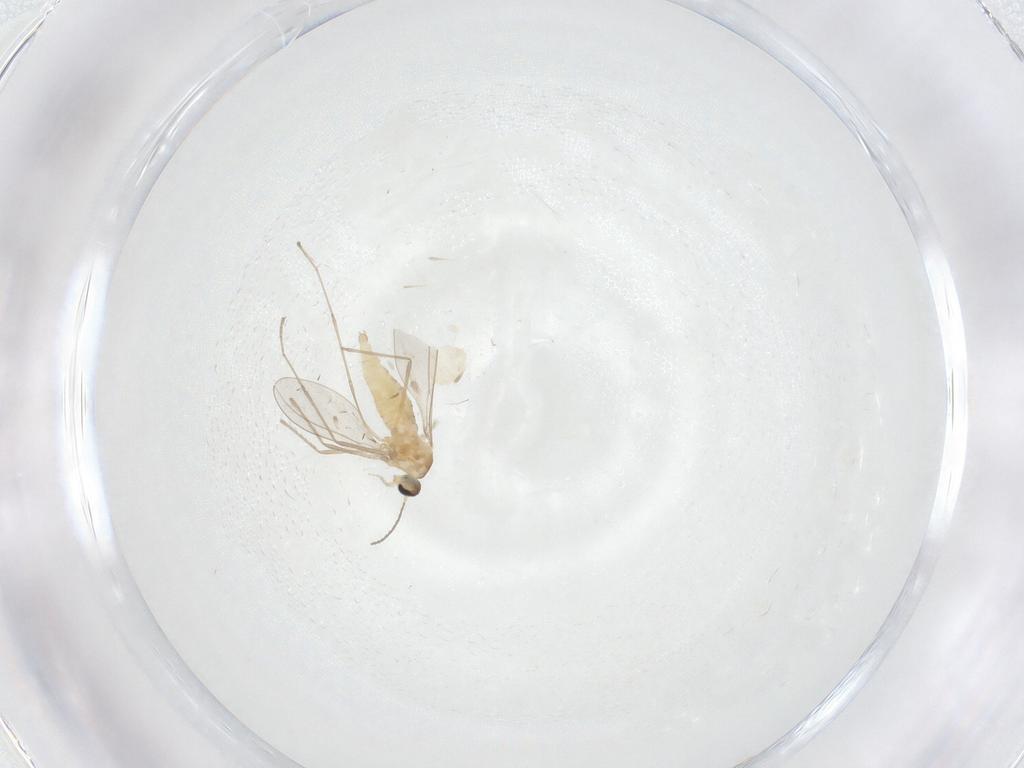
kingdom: Animalia
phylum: Arthropoda
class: Insecta
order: Diptera
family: Cecidomyiidae
